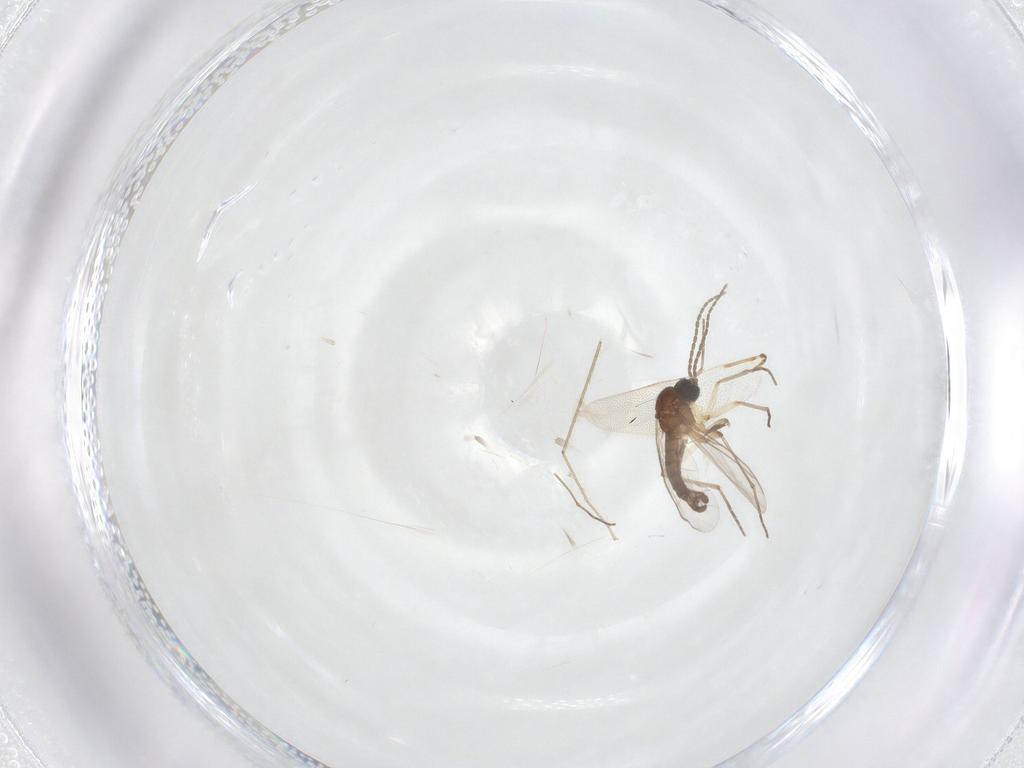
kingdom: Animalia
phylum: Arthropoda
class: Insecta
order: Diptera
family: Sciaridae
